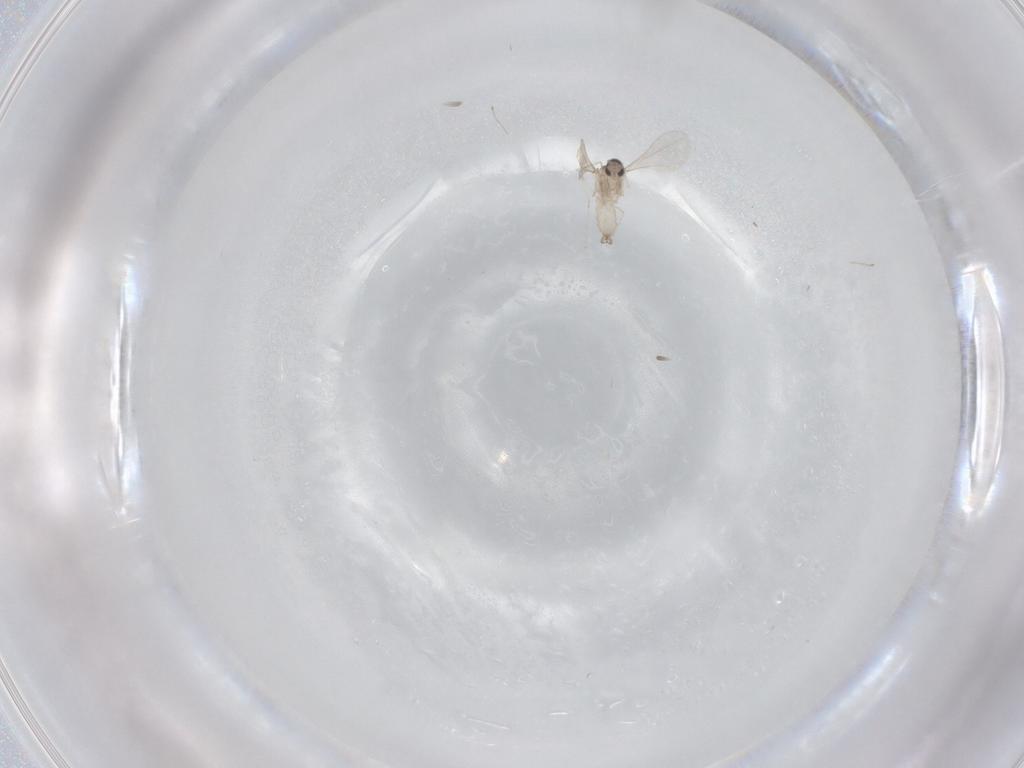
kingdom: Animalia
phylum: Arthropoda
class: Insecta
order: Diptera
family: Cecidomyiidae
